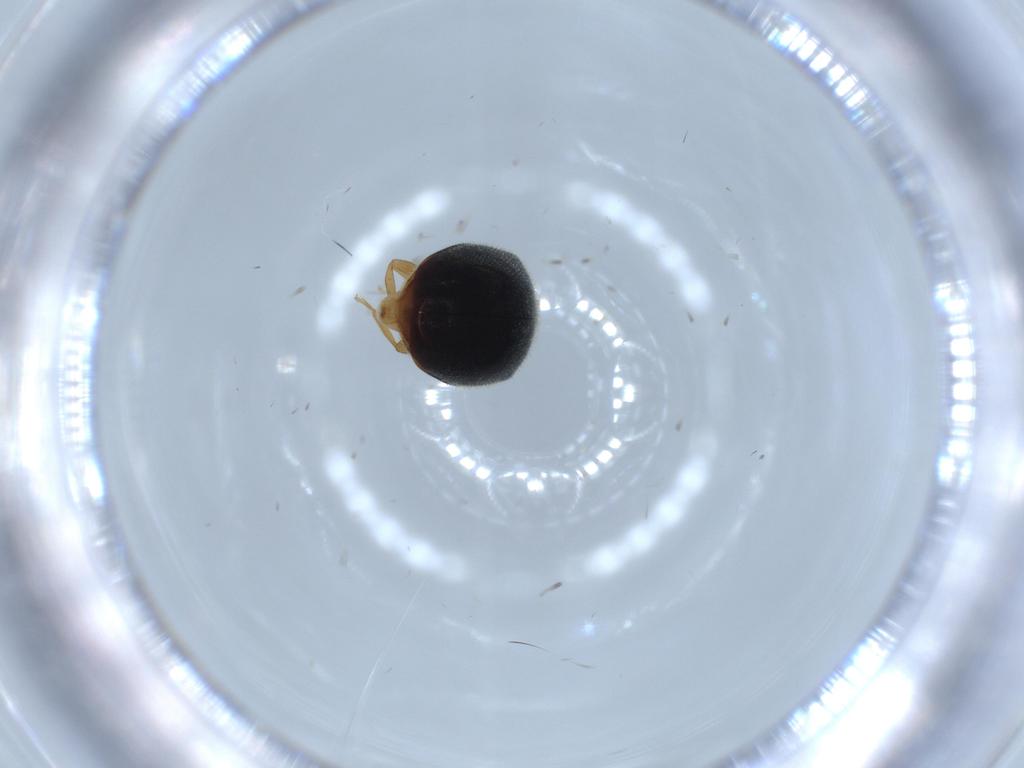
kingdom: Animalia
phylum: Arthropoda
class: Insecta
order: Coleoptera
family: Coccinellidae
